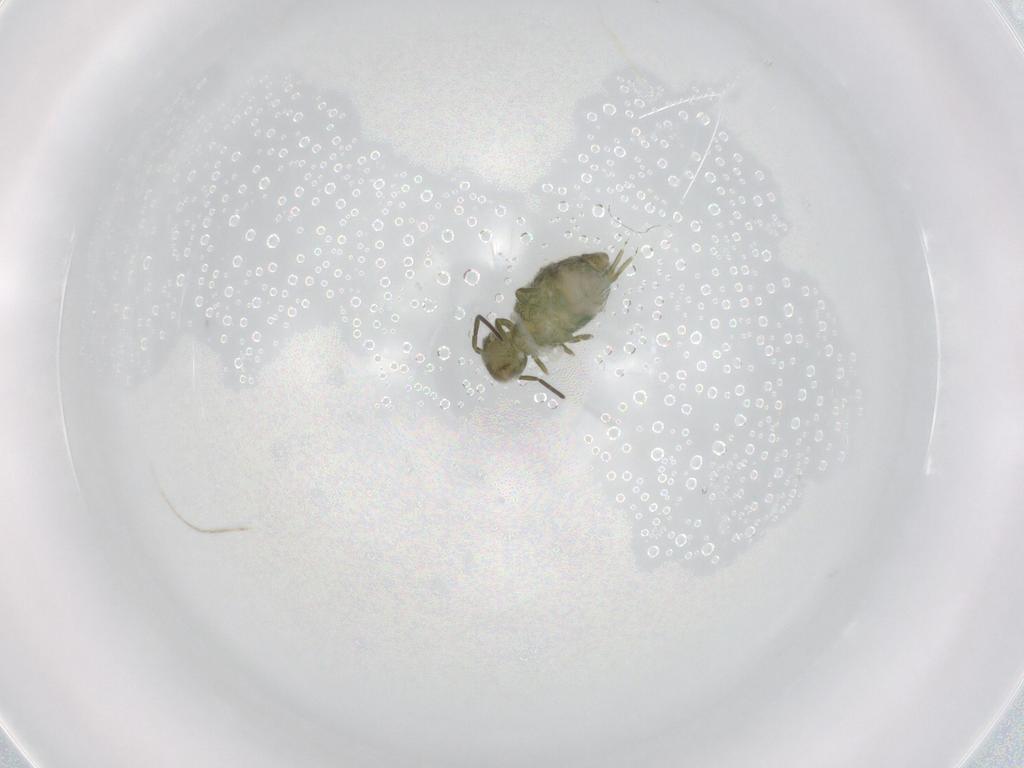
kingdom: Animalia
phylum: Arthropoda
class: Collembola
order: Symphypleona
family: Sminthuridae
